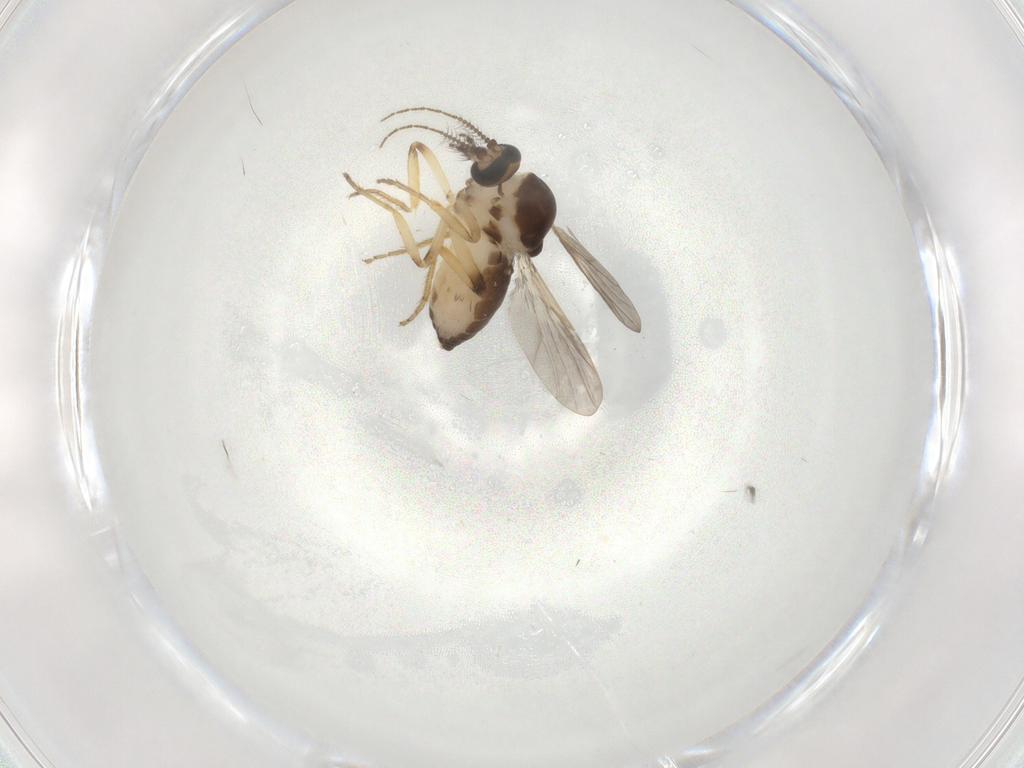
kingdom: Animalia
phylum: Arthropoda
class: Insecta
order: Diptera
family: Ceratopogonidae
